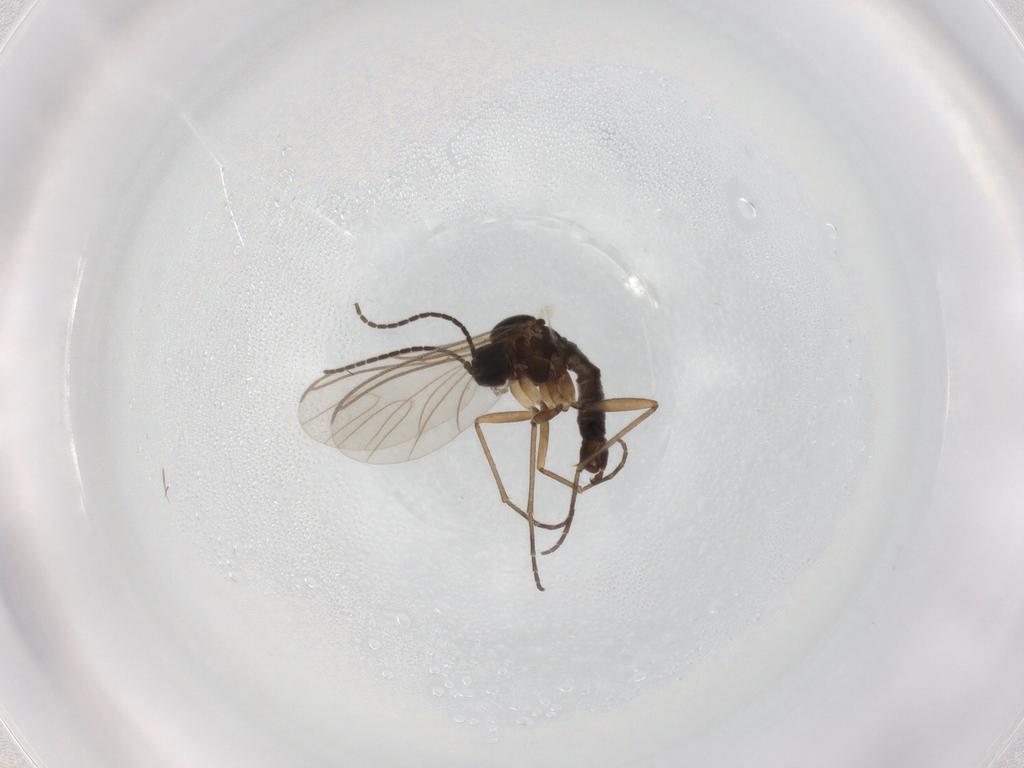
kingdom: Animalia
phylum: Arthropoda
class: Insecta
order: Diptera
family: Sciaridae
